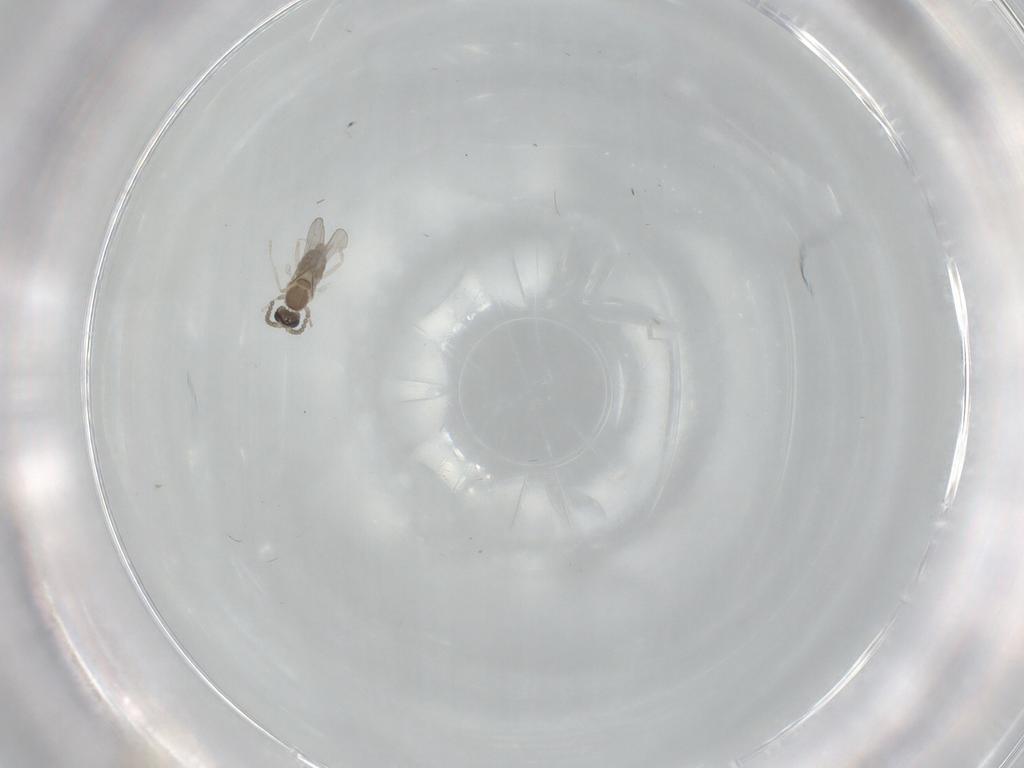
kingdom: Animalia
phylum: Arthropoda
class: Insecta
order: Diptera
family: Cecidomyiidae
